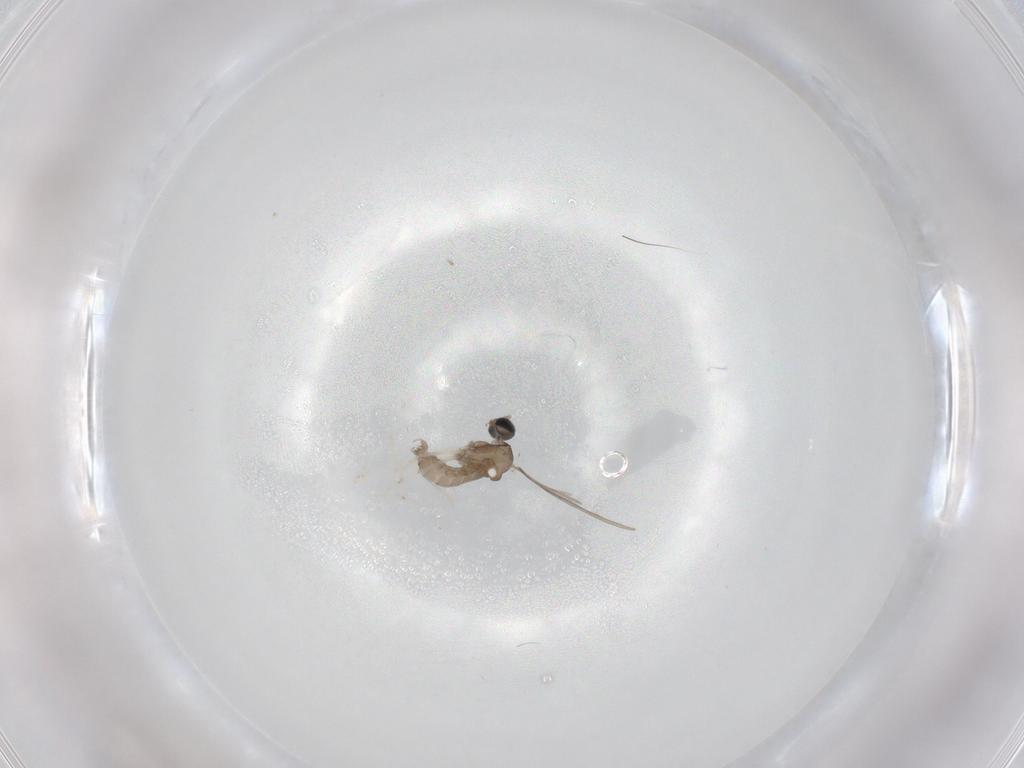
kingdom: Animalia
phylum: Arthropoda
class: Insecta
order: Diptera
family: Cecidomyiidae
